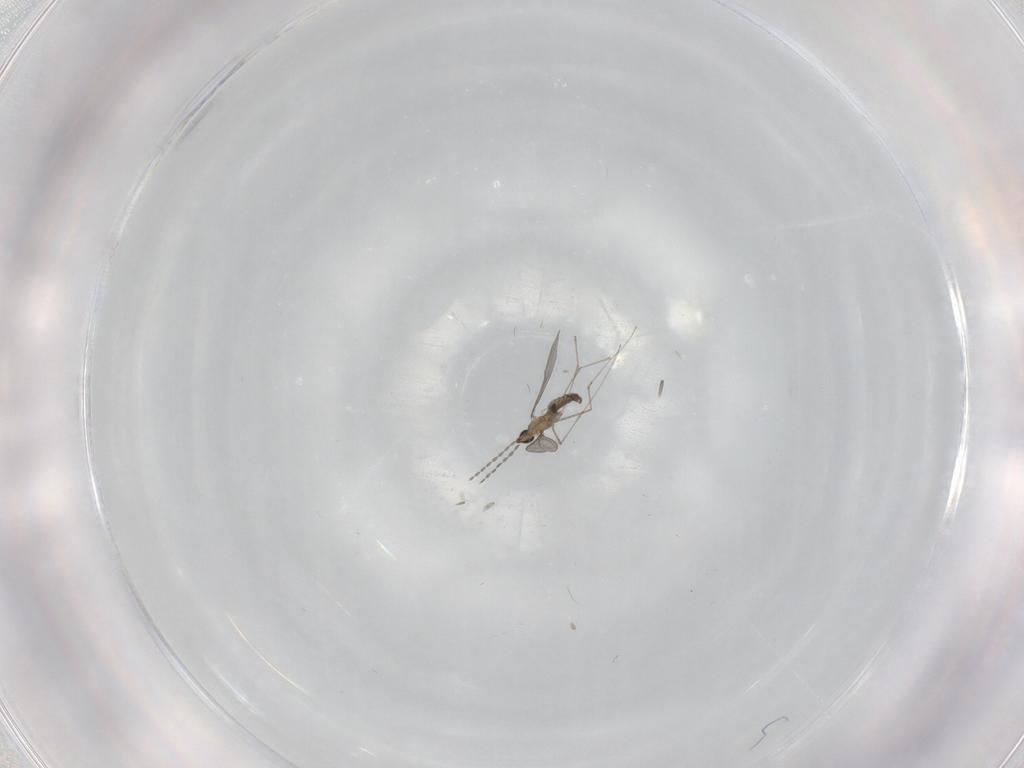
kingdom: Animalia
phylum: Arthropoda
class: Insecta
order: Diptera
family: Cecidomyiidae
